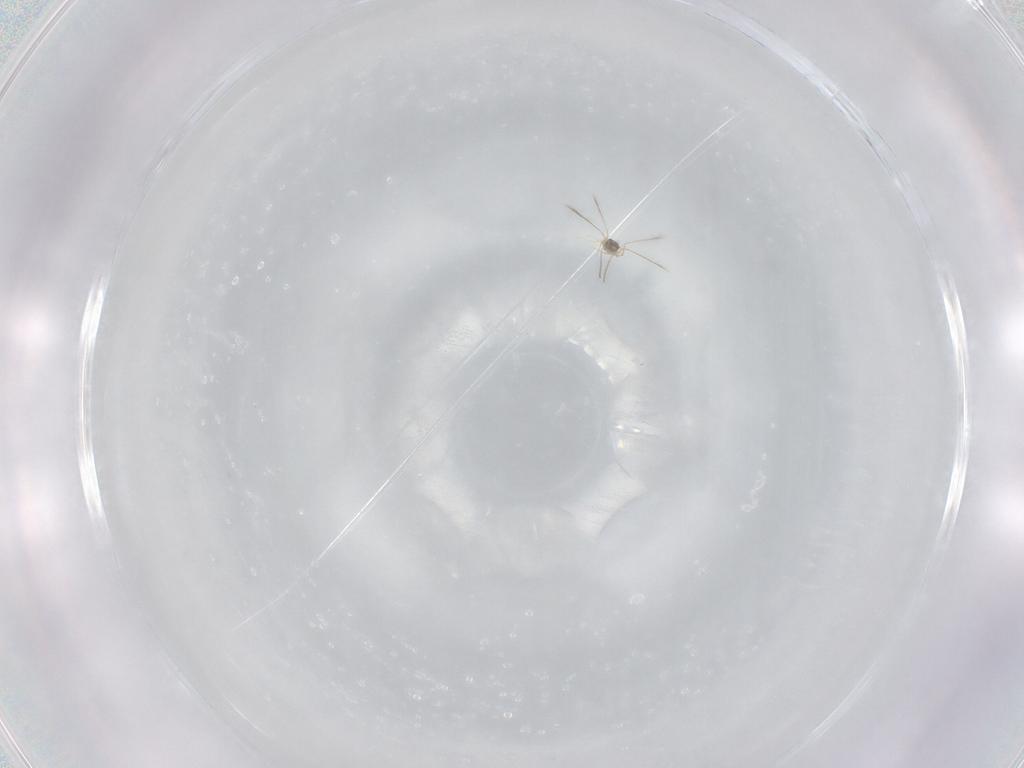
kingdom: Animalia
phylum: Arthropoda
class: Insecta
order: Hymenoptera
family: Mymaridae
